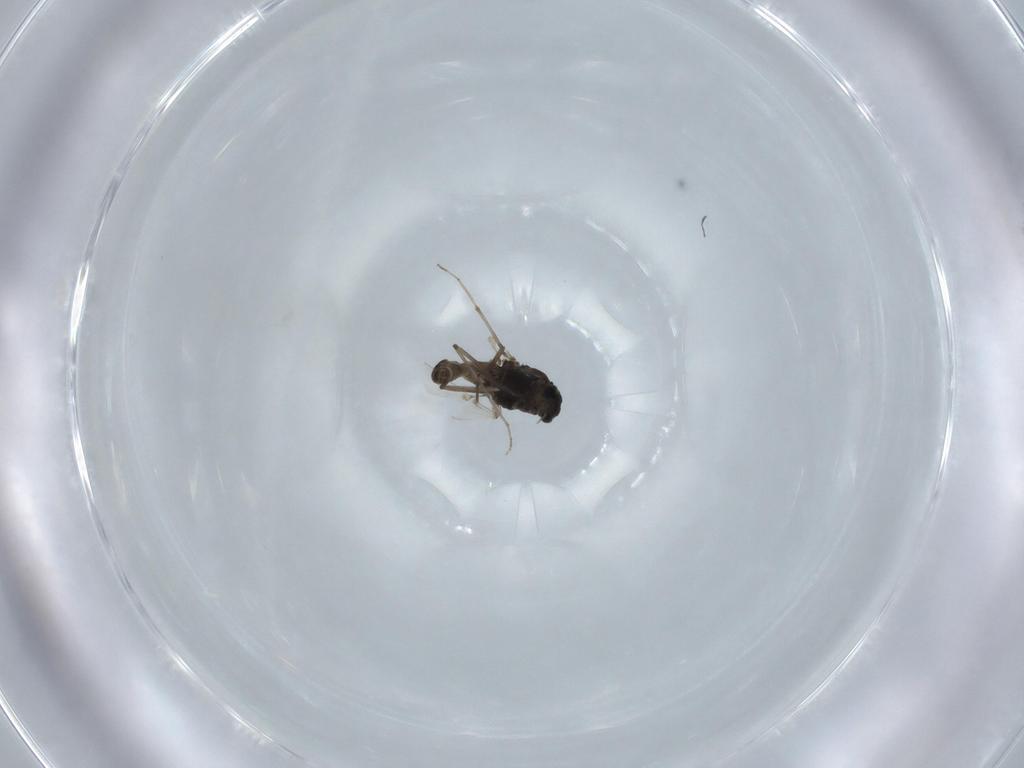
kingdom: Animalia
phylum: Arthropoda
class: Insecta
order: Diptera
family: Chironomidae
